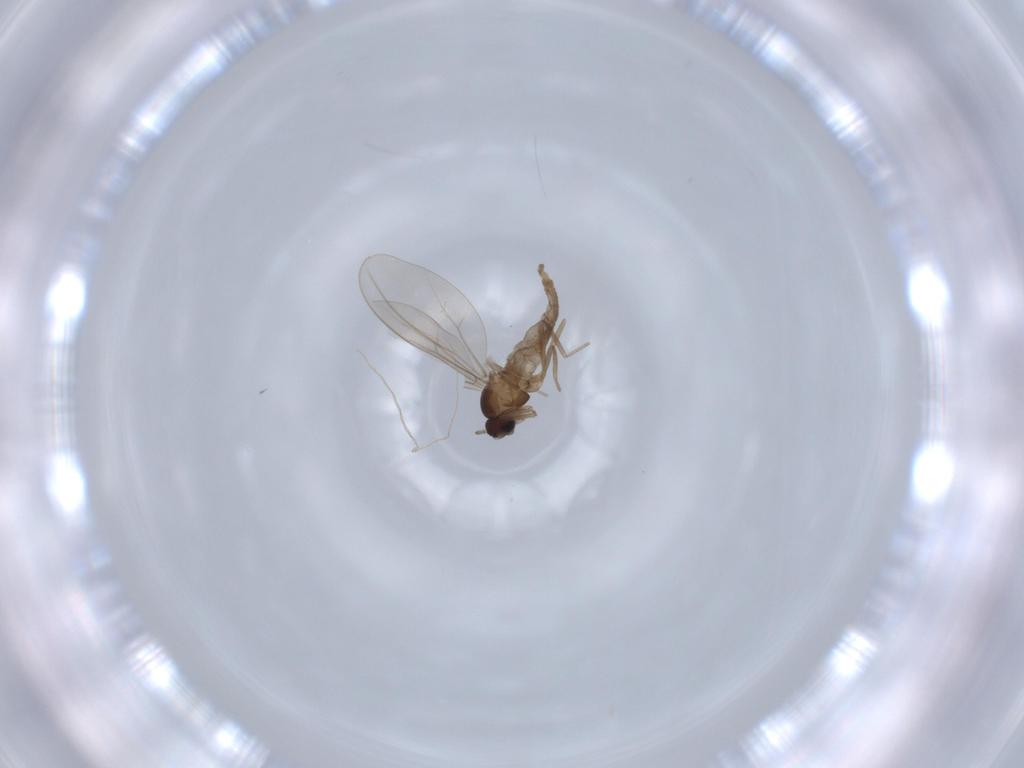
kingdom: Animalia
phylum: Arthropoda
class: Insecta
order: Diptera
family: Cecidomyiidae
